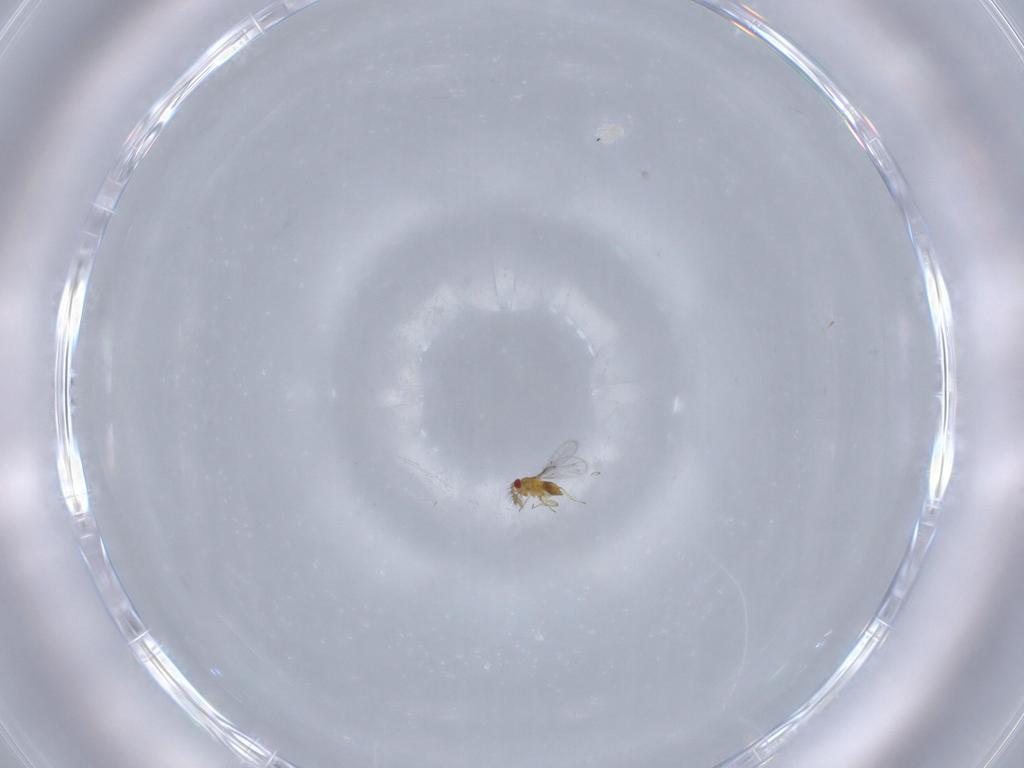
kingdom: Animalia
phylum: Arthropoda
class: Insecta
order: Hymenoptera
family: Trichogrammatidae
